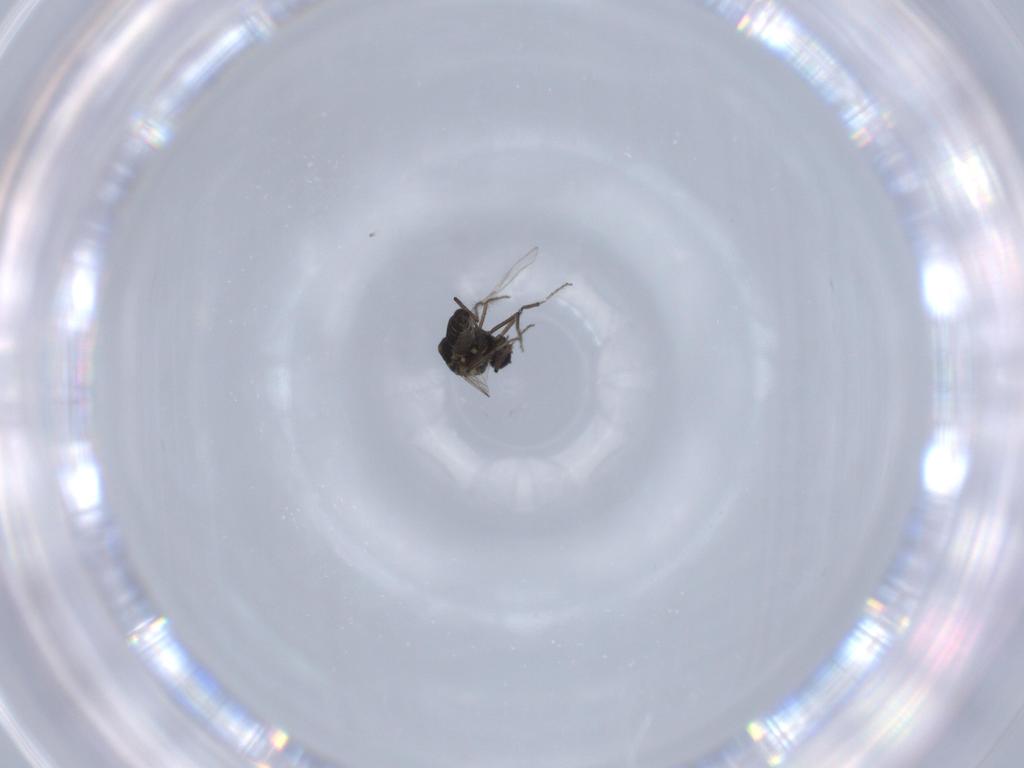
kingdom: Animalia
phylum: Arthropoda
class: Insecta
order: Diptera
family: Ceratopogonidae
